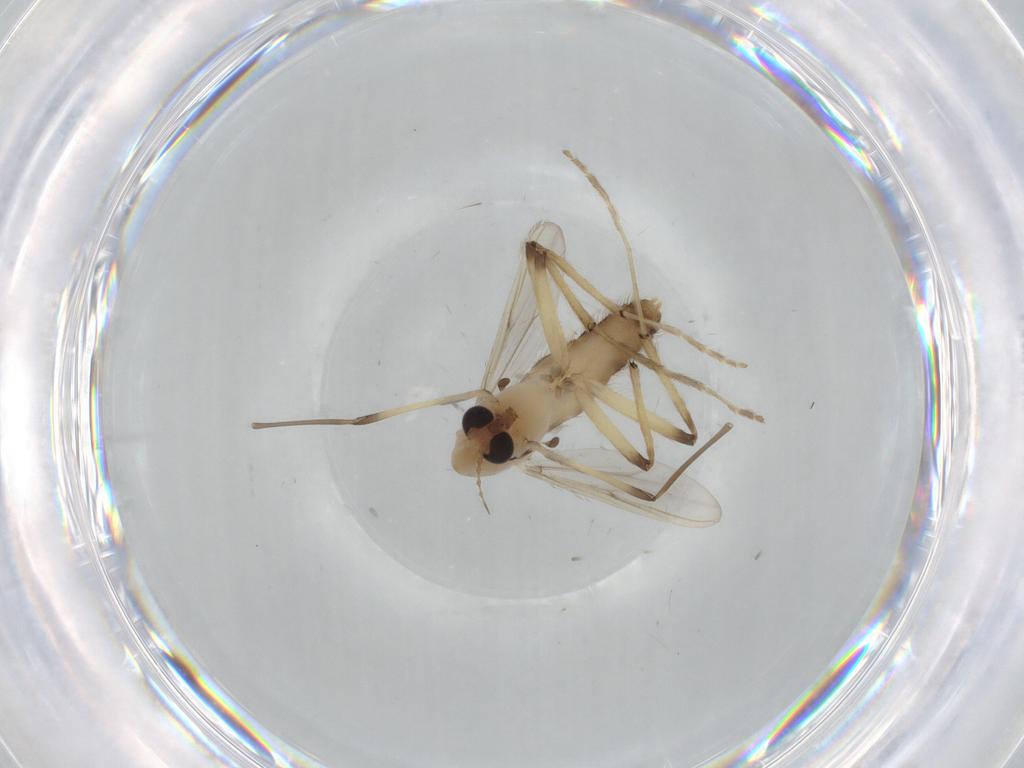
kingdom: Animalia
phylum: Arthropoda
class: Insecta
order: Diptera
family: Chironomidae
